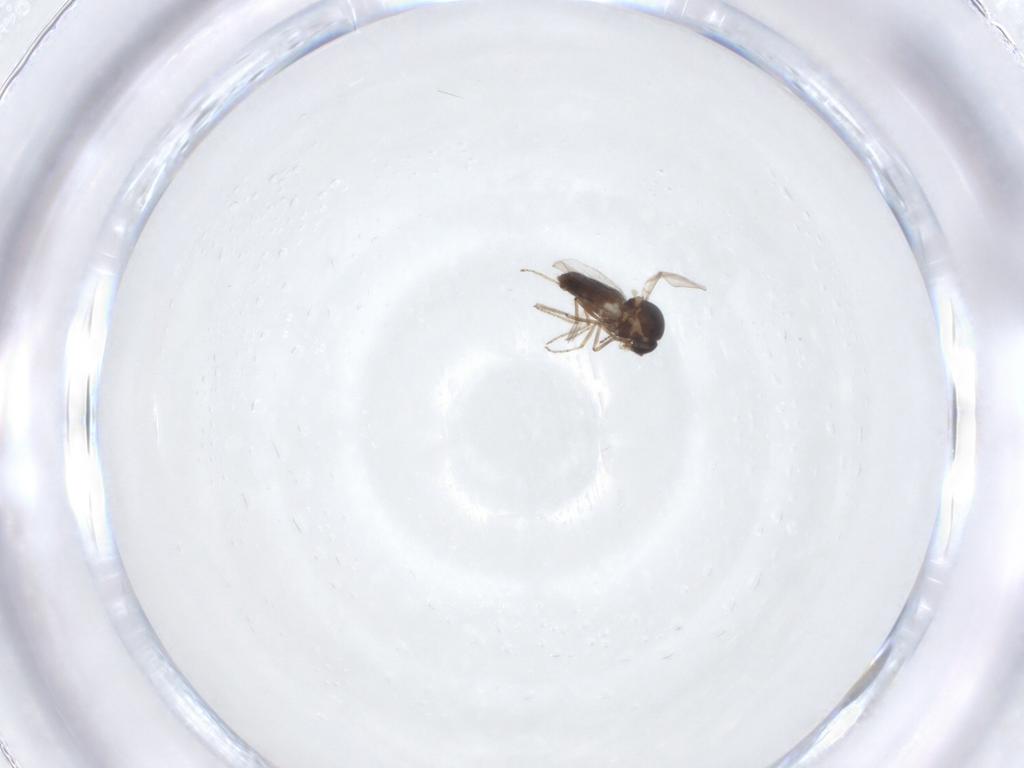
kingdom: Animalia
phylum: Arthropoda
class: Insecta
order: Diptera
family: Ceratopogonidae
